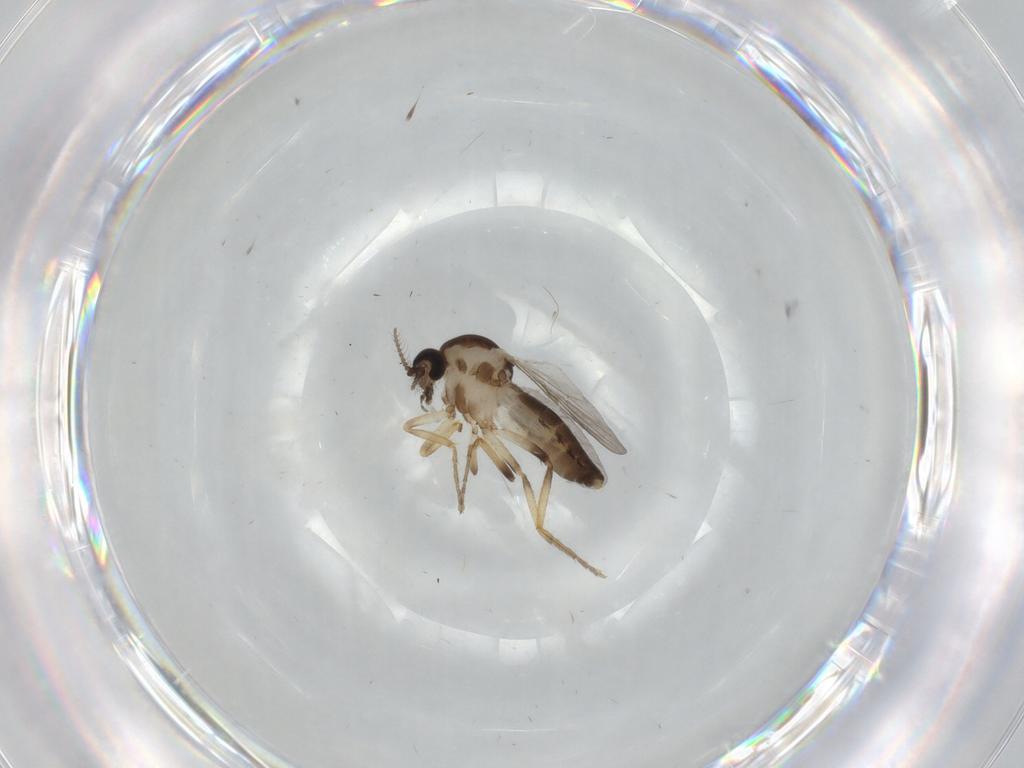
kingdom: Animalia
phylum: Arthropoda
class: Insecta
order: Diptera
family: Ceratopogonidae
